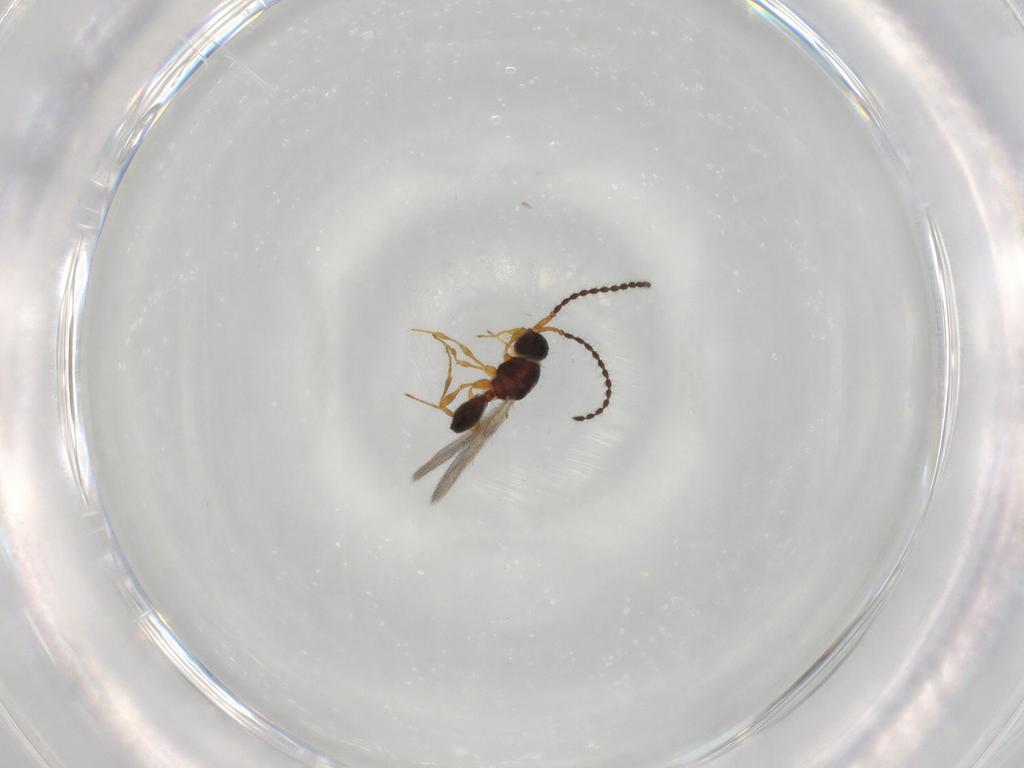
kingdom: Animalia
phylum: Arthropoda
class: Insecta
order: Hymenoptera
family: Diapriidae
